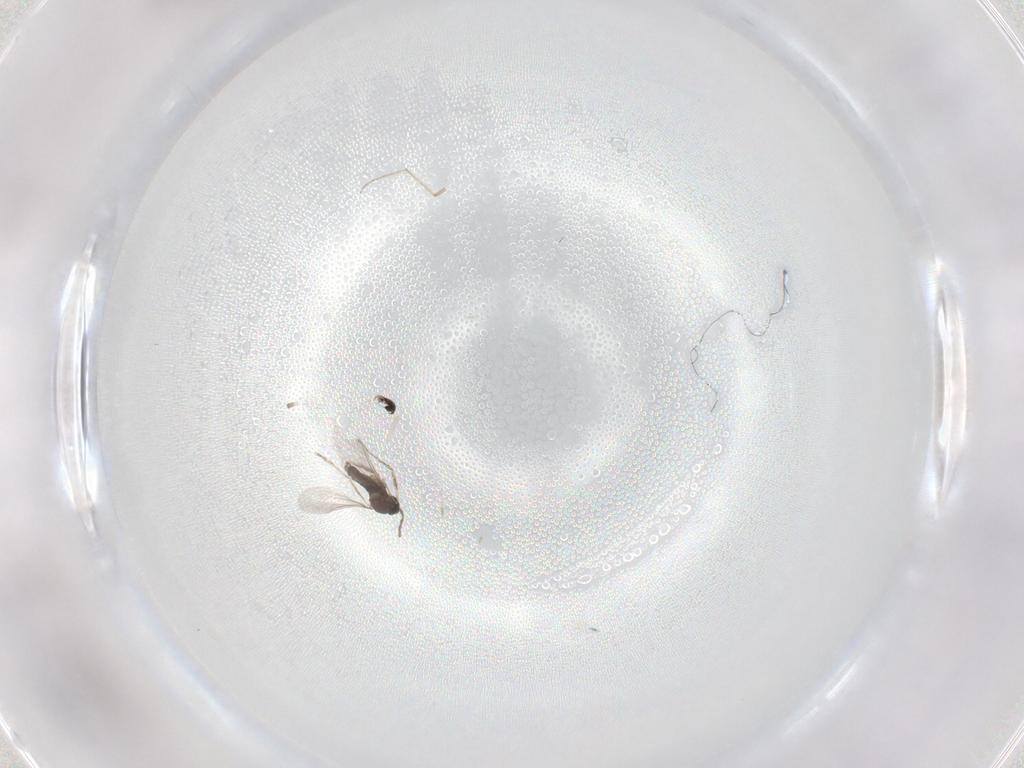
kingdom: Animalia
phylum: Arthropoda
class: Insecta
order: Diptera
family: Cecidomyiidae
